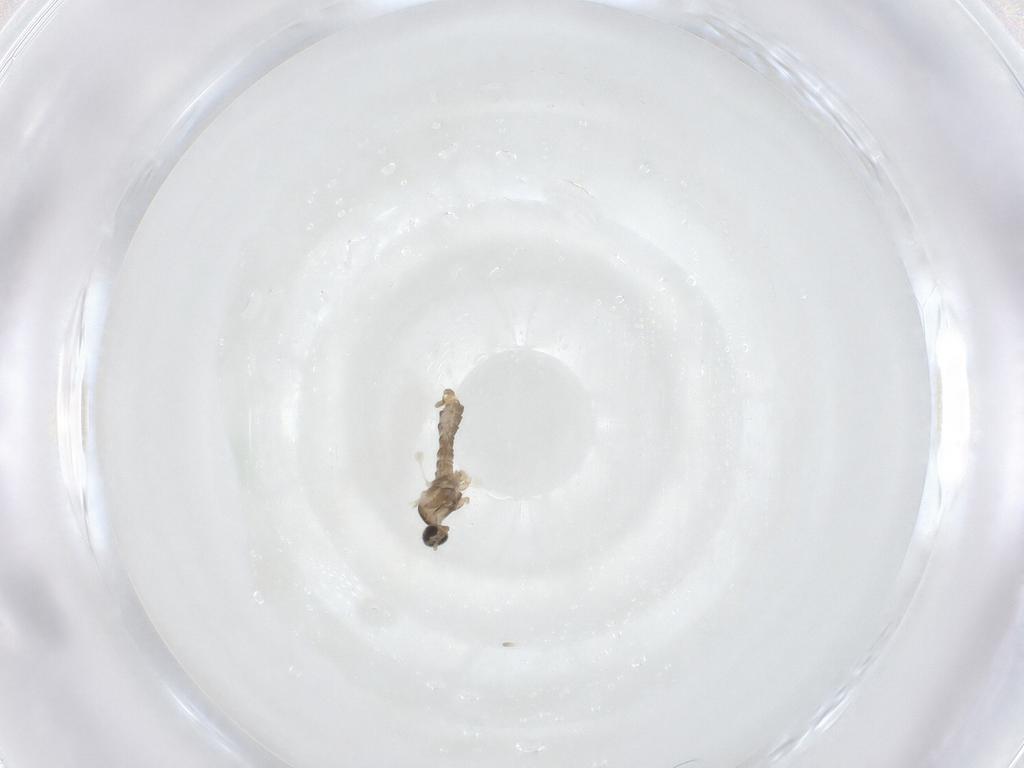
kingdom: Animalia
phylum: Arthropoda
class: Insecta
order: Diptera
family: Cecidomyiidae
